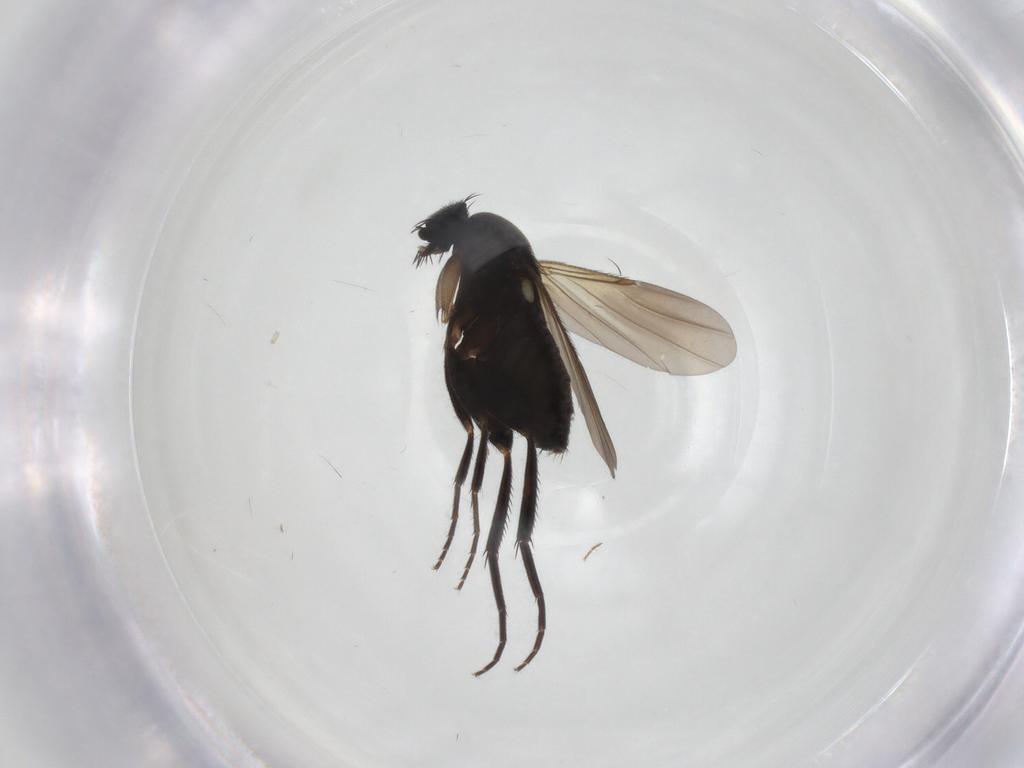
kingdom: Animalia
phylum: Arthropoda
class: Insecta
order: Diptera
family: Phoridae
